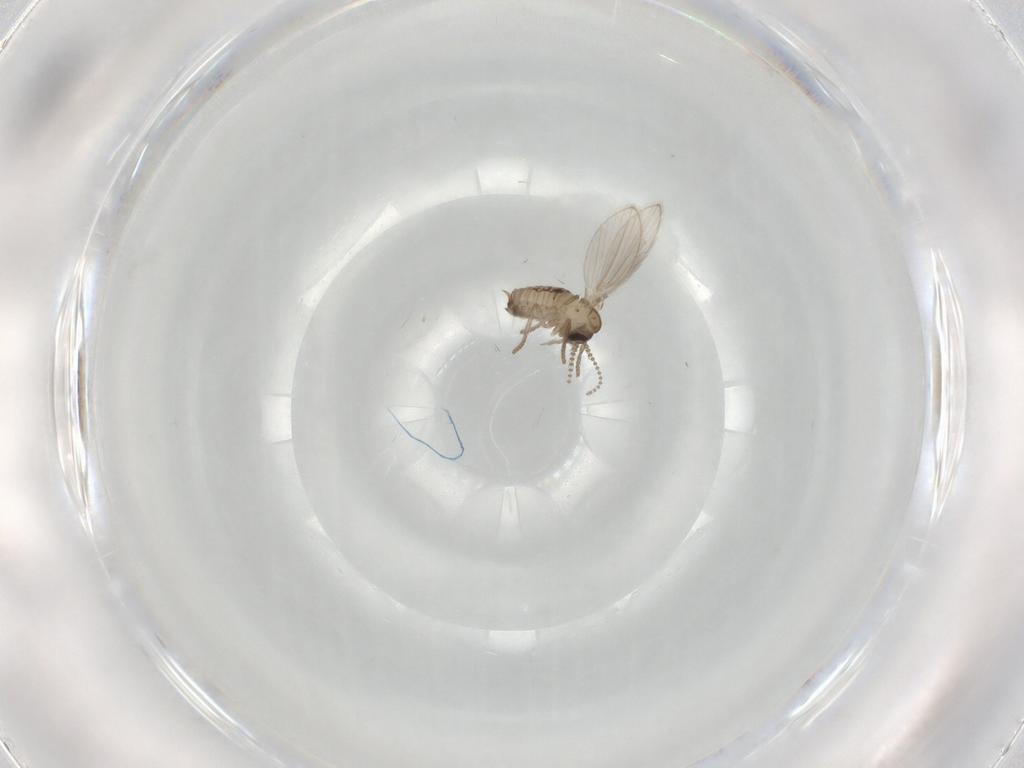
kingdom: Animalia
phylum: Arthropoda
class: Insecta
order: Diptera
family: Psychodidae
